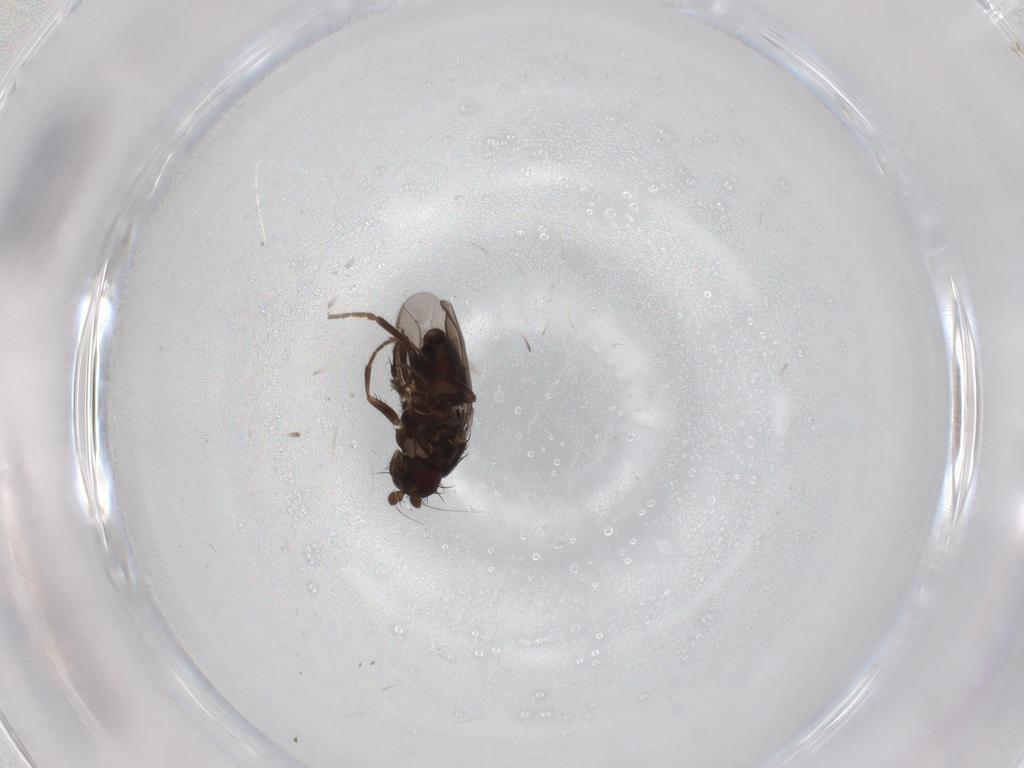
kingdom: Animalia
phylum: Arthropoda
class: Insecta
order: Diptera
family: Sphaeroceridae
